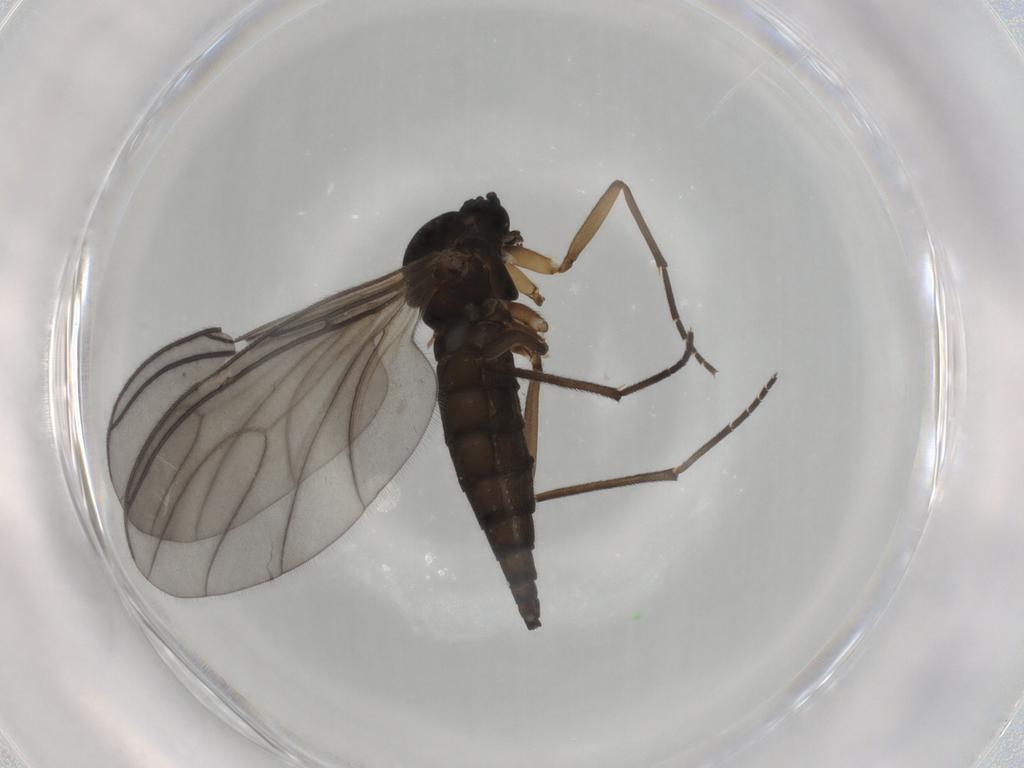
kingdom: Animalia
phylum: Arthropoda
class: Insecta
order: Diptera
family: Sciaridae
